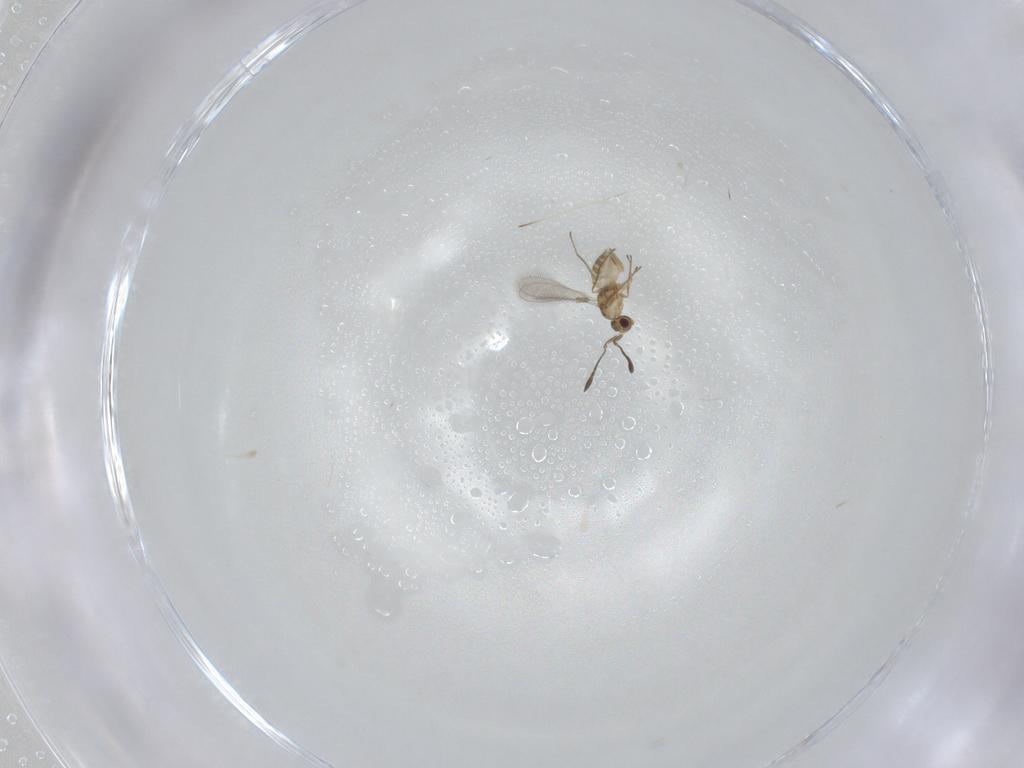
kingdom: Animalia
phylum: Arthropoda
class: Insecta
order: Hymenoptera
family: Mymaridae
